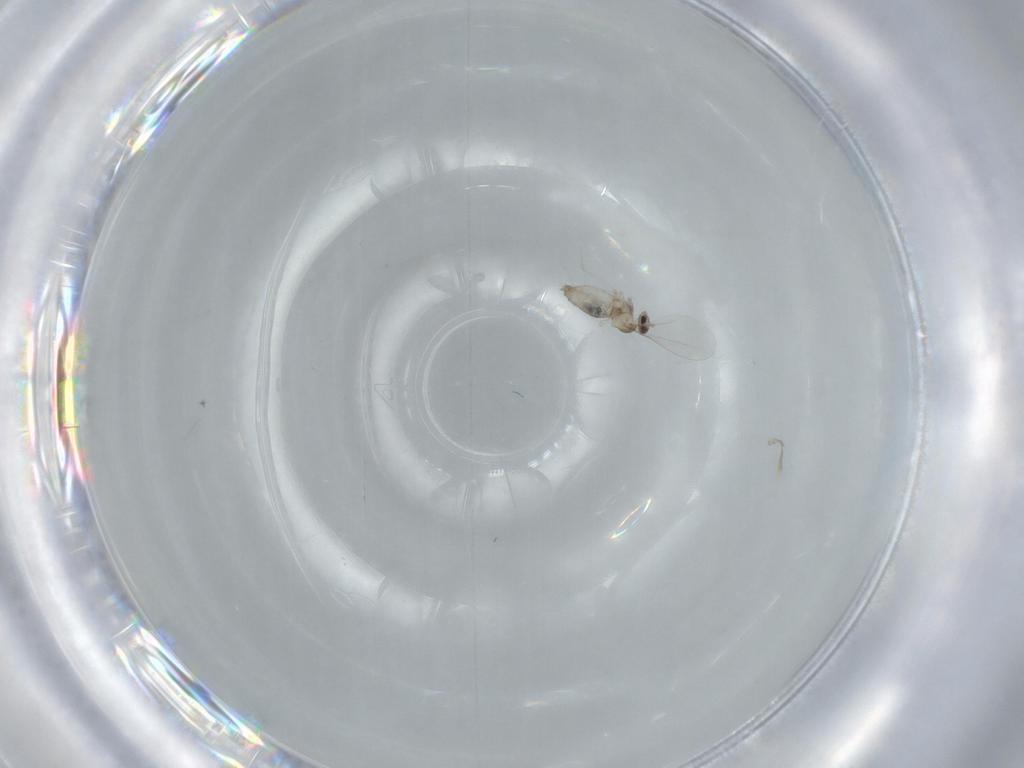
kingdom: Animalia
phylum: Arthropoda
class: Insecta
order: Diptera
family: Cecidomyiidae
